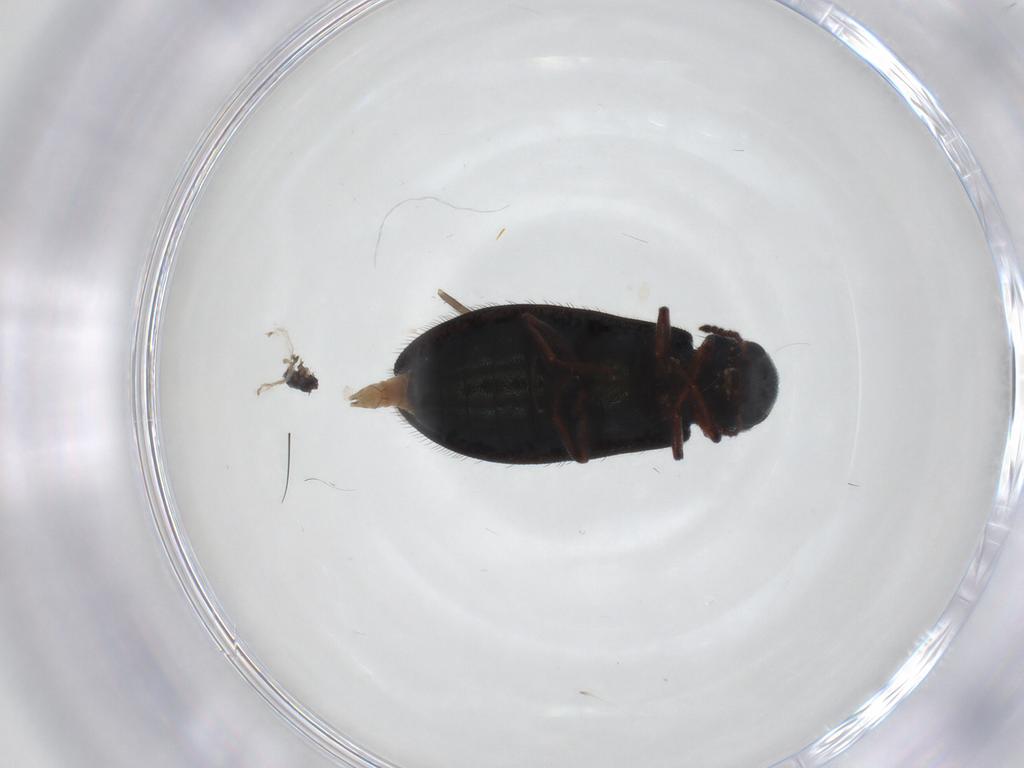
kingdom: Animalia
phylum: Arthropoda
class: Insecta
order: Coleoptera
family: Melyridae
